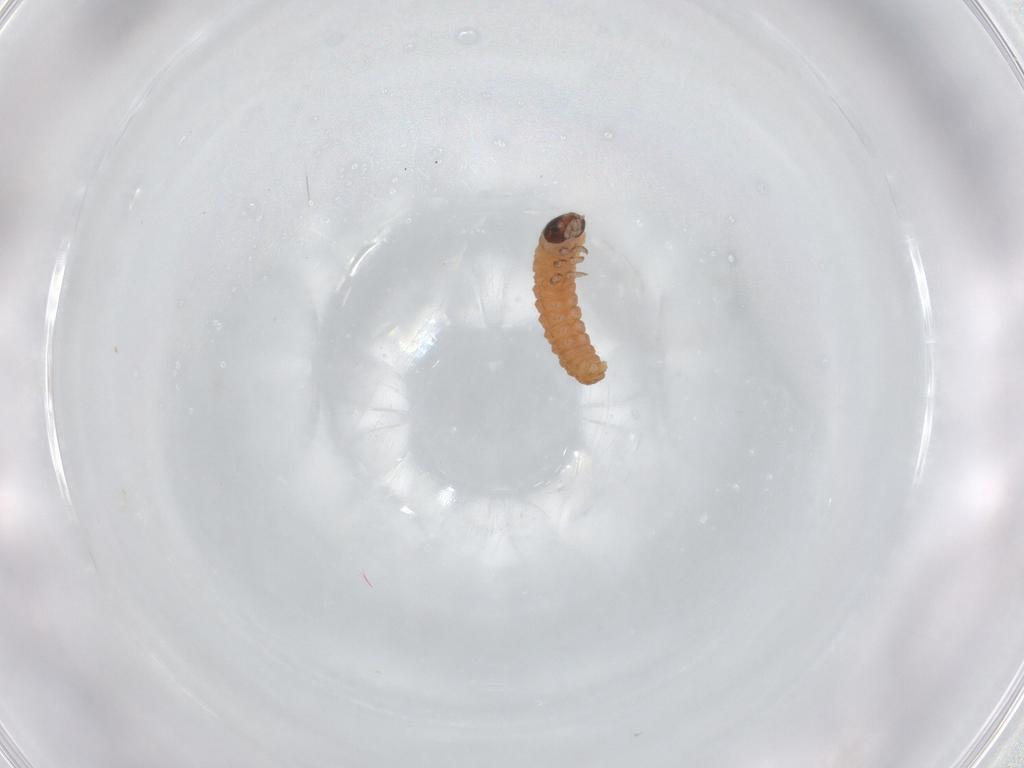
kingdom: Animalia
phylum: Arthropoda
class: Insecta
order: Lepidoptera
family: Tortricidae
